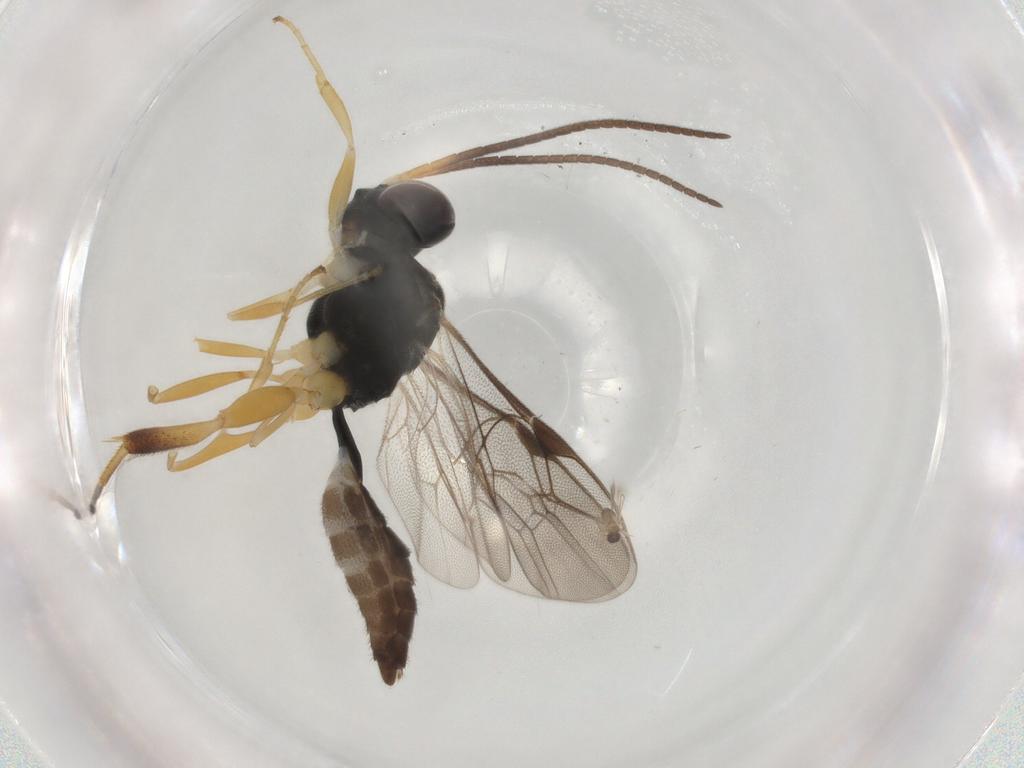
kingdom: Animalia
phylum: Arthropoda
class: Insecta
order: Hymenoptera
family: Ichneumonidae
